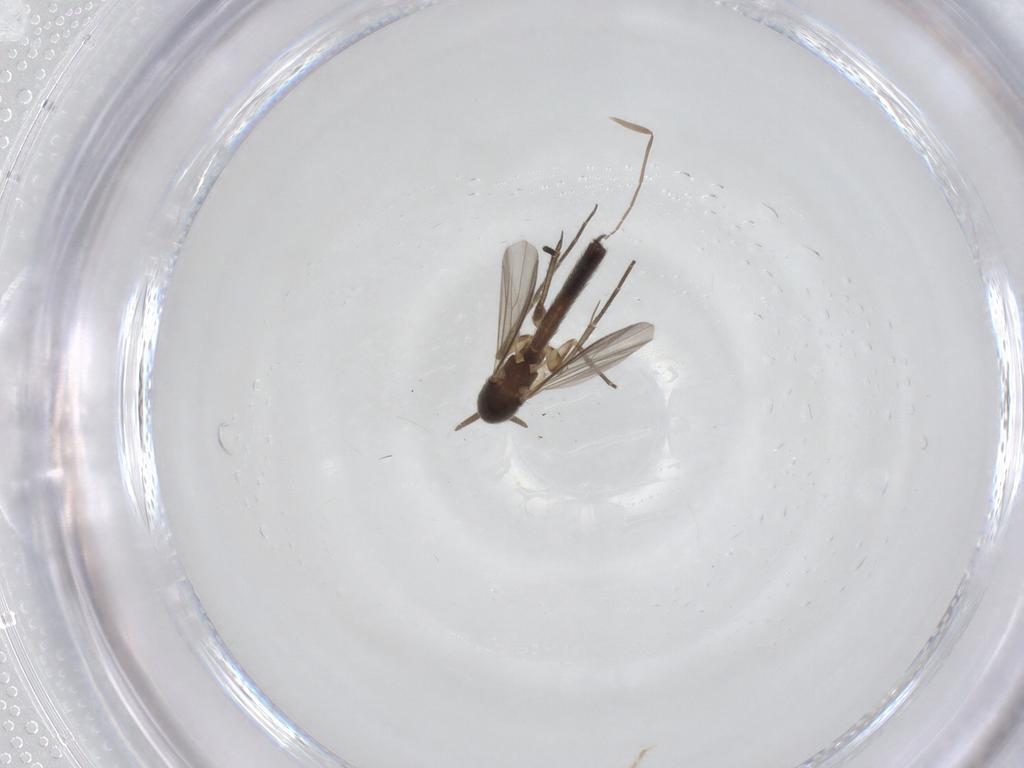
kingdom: Animalia
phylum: Arthropoda
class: Insecta
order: Diptera
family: Mycetophilidae
